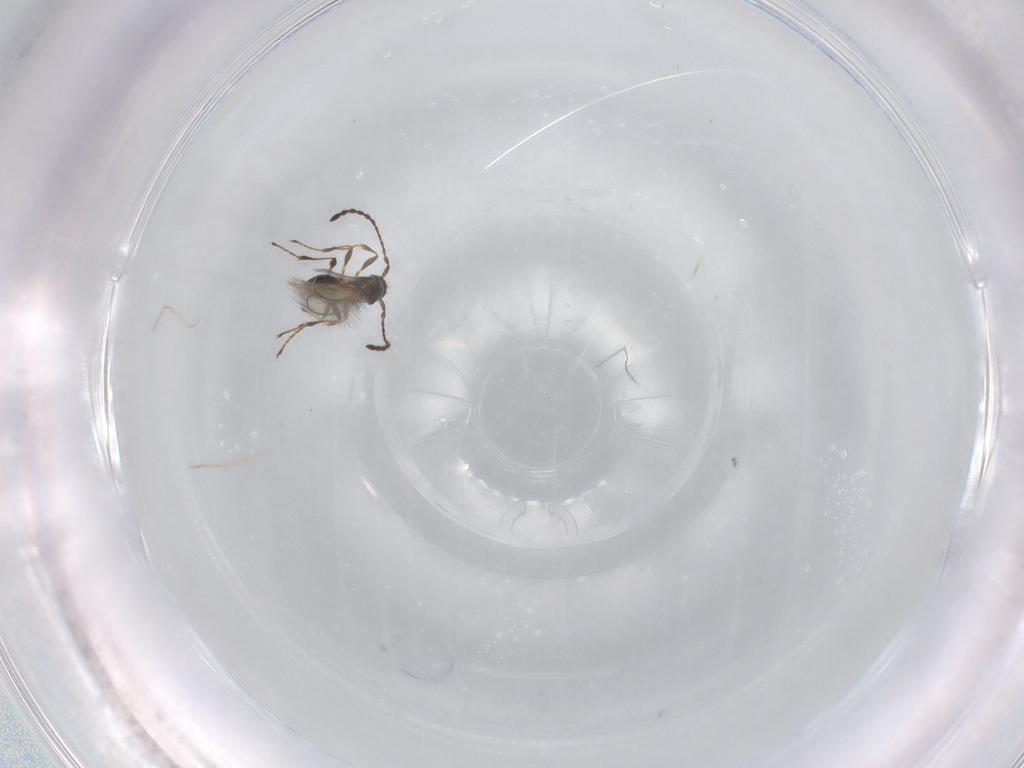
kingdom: Animalia
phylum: Arthropoda
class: Insecta
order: Hymenoptera
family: Diapriidae
